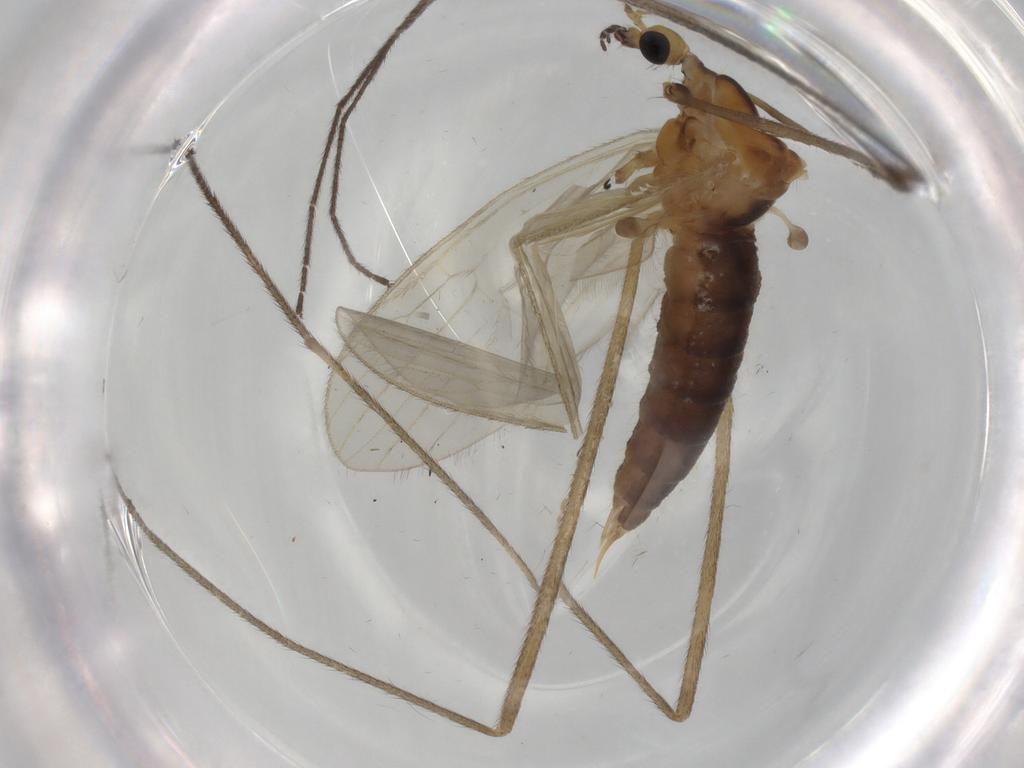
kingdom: Animalia
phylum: Arthropoda
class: Insecta
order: Diptera
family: Limoniidae
